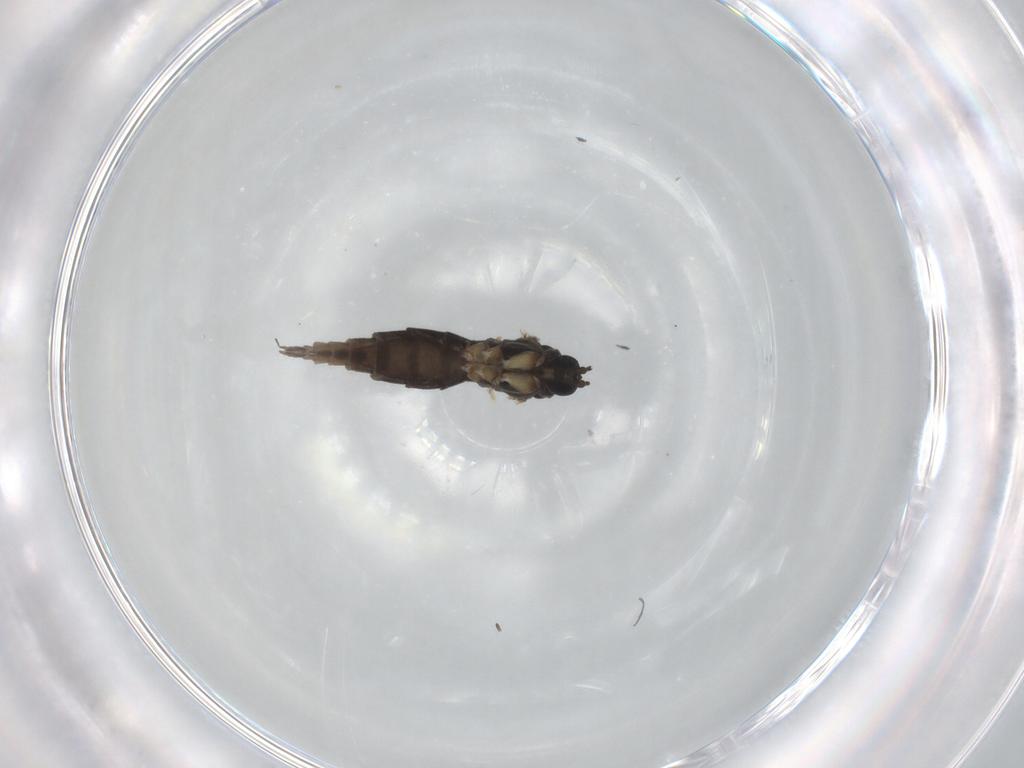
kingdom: Animalia
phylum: Arthropoda
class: Insecta
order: Diptera
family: Sciaridae
